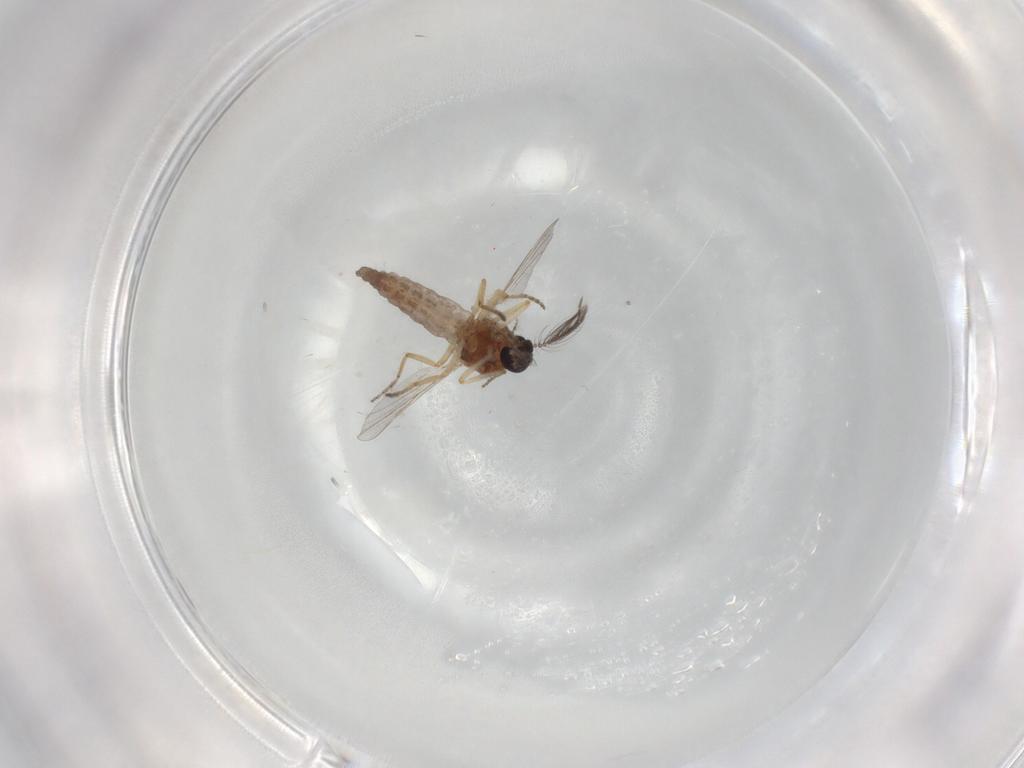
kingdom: Animalia
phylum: Arthropoda
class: Insecta
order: Diptera
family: Ceratopogonidae
